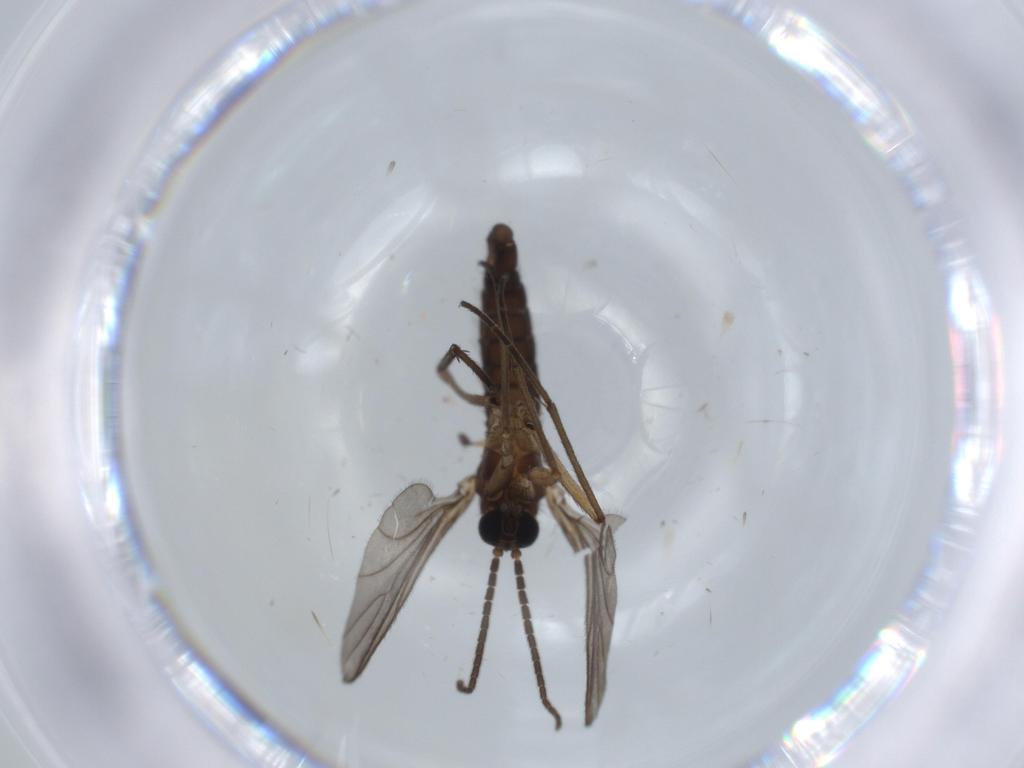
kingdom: Animalia
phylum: Arthropoda
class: Insecta
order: Diptera
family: Sciaridae
